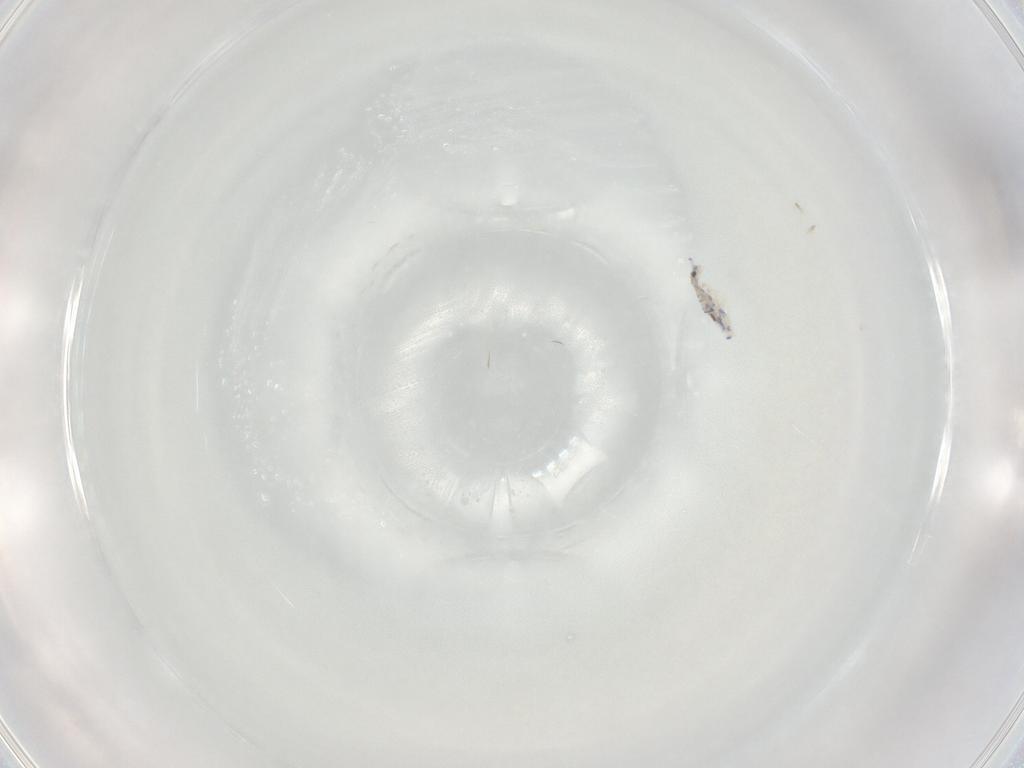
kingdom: Animalia
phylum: Arthropoda
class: Collembola
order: Entomobryomorpha
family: Entomobryidae
